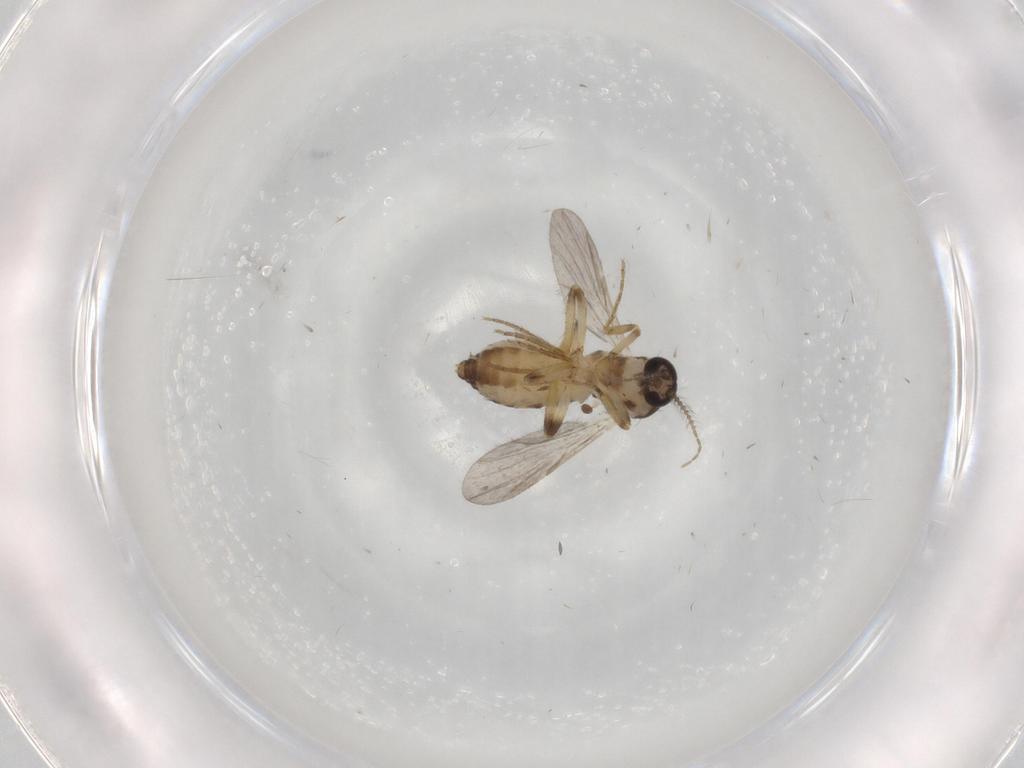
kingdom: Animalia
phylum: Arthropoda
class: Insecta
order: Diptera
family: Ceratopogonidae
